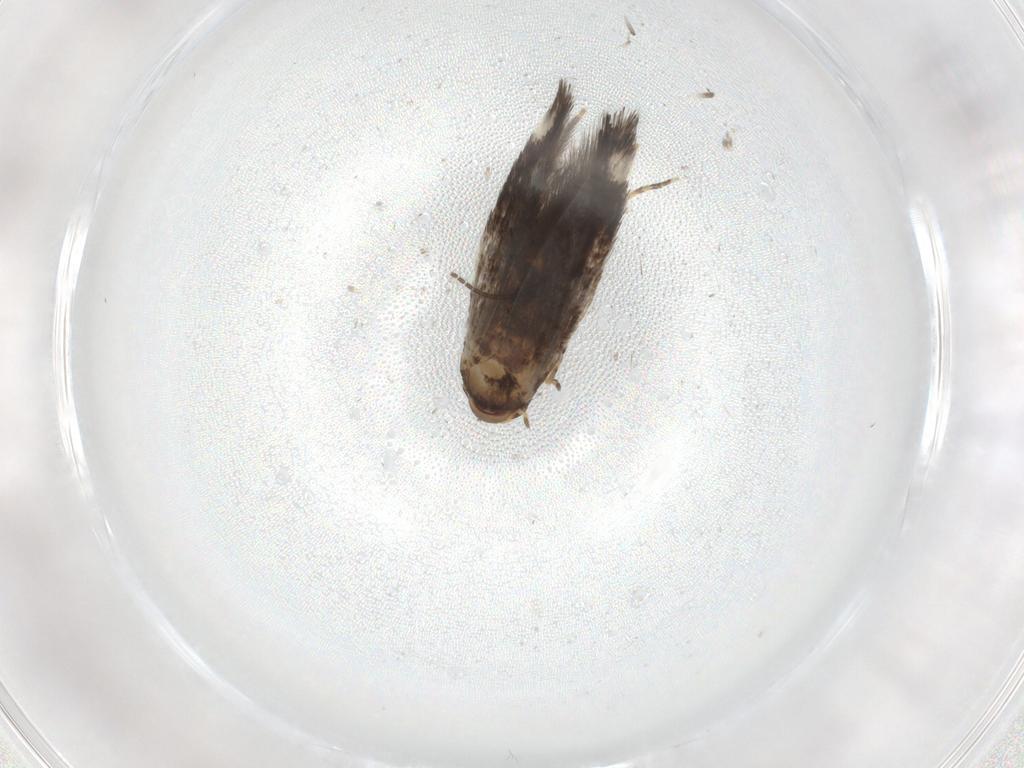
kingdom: Animalia
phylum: Arthropoda
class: Insecta
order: Lepidoptera
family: Elachistidae
